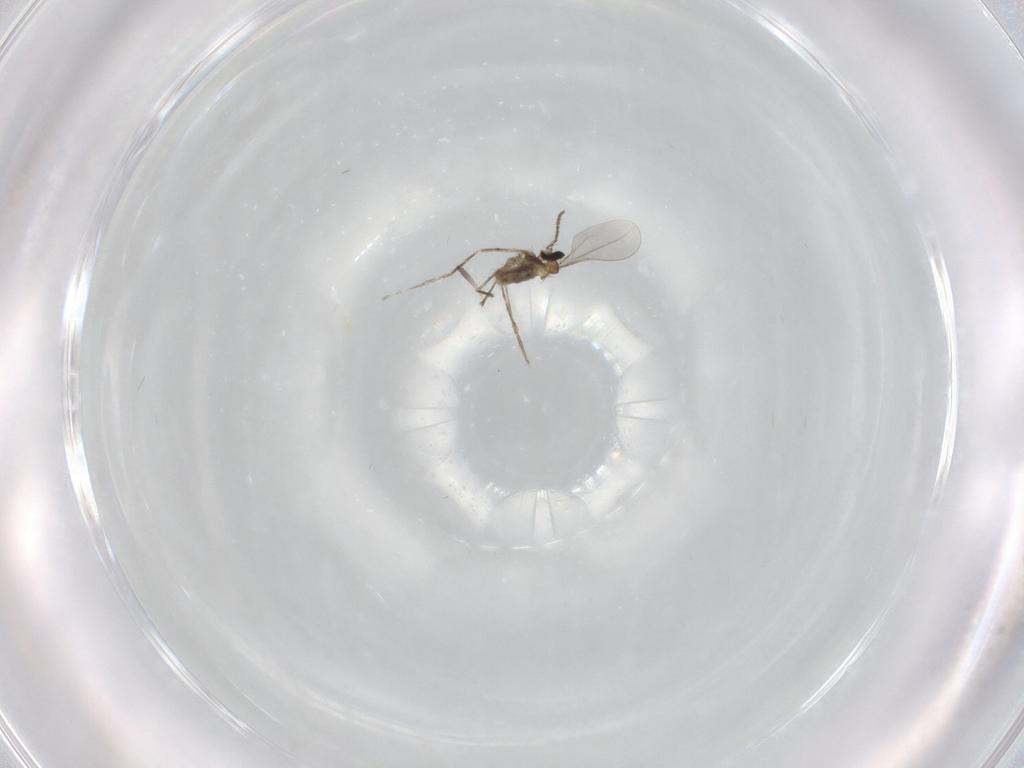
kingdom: Animalia
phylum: Arthropoda
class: Insecta
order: Diptera
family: Cecidomyiidae
